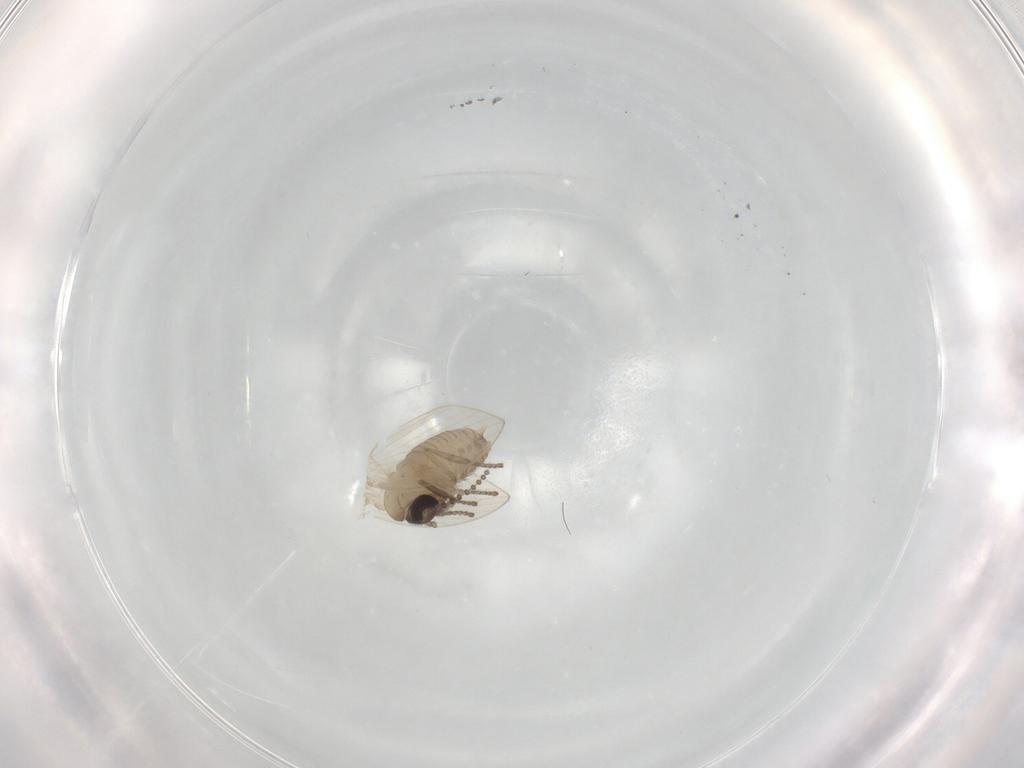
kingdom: Animalia
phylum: Arthropoda
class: Insecta
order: Diptera
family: Psychodidae
